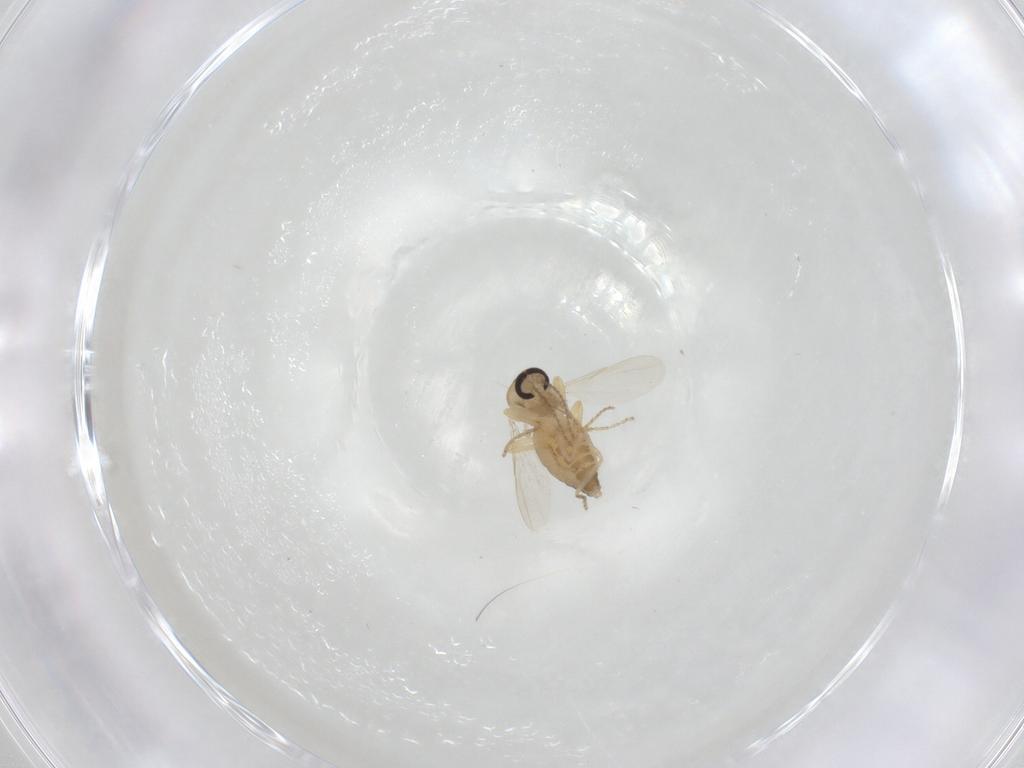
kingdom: Animalia
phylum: Arthropoda
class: Insecta
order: Diptera
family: Ceratopogonidae
